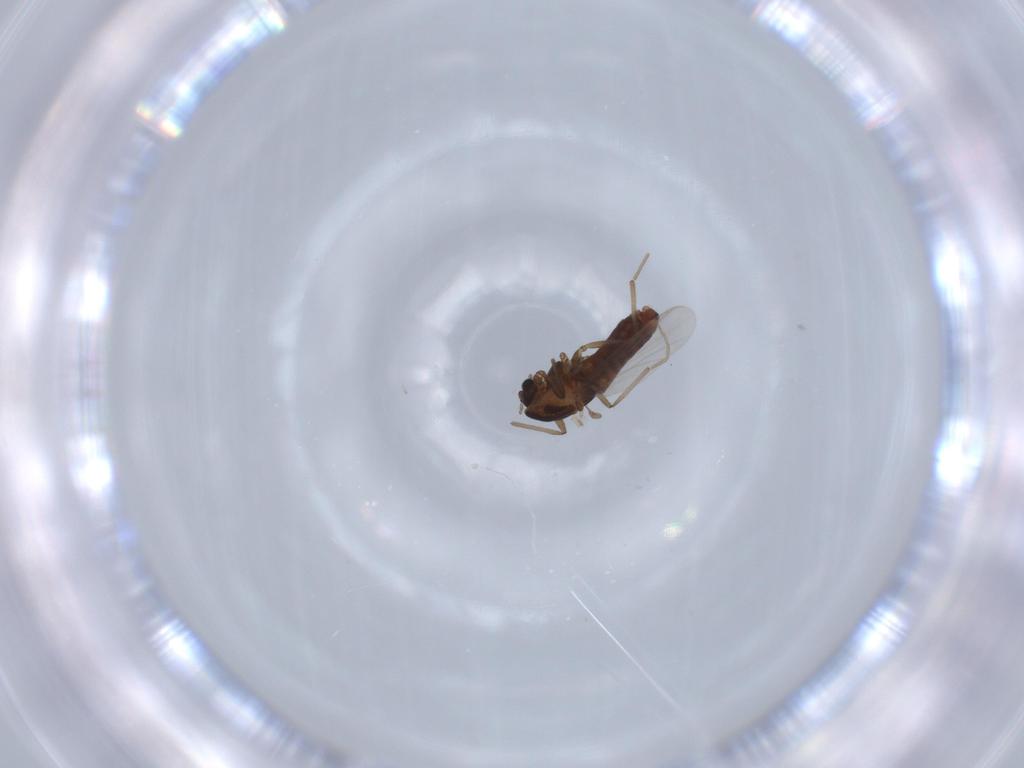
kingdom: Animalia
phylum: Arthropoda
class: Insecta
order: Diptera
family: Chironomidae
